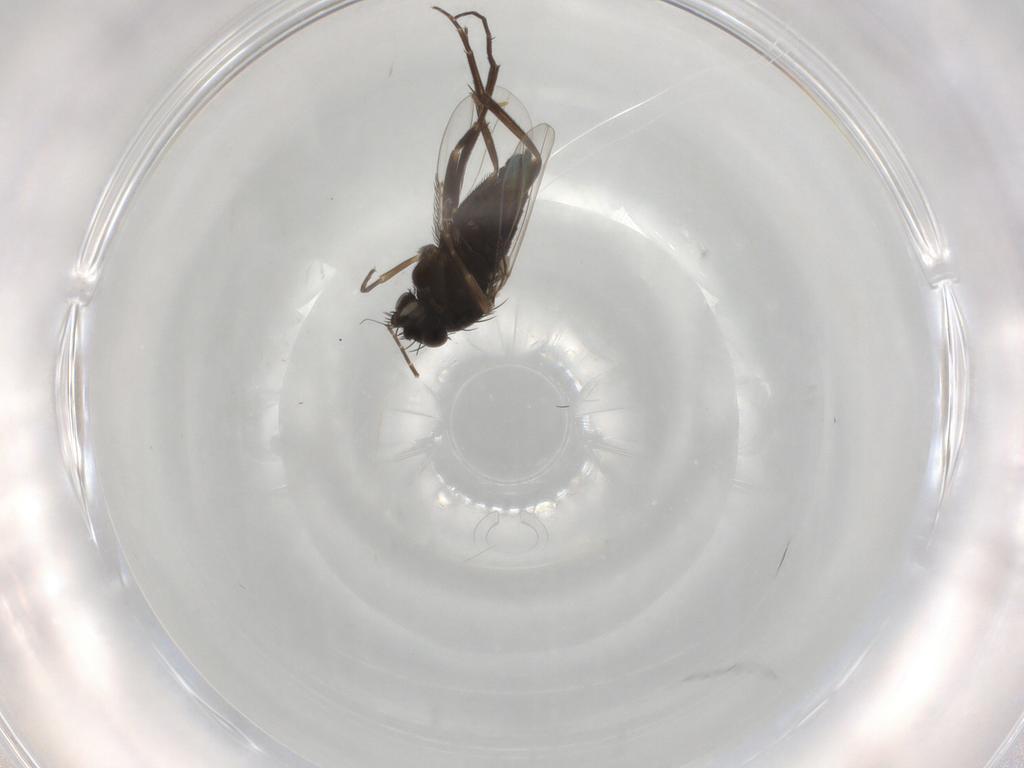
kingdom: Animalia
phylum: Arthropoda
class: Insecta
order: Diptera
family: Phoridae
